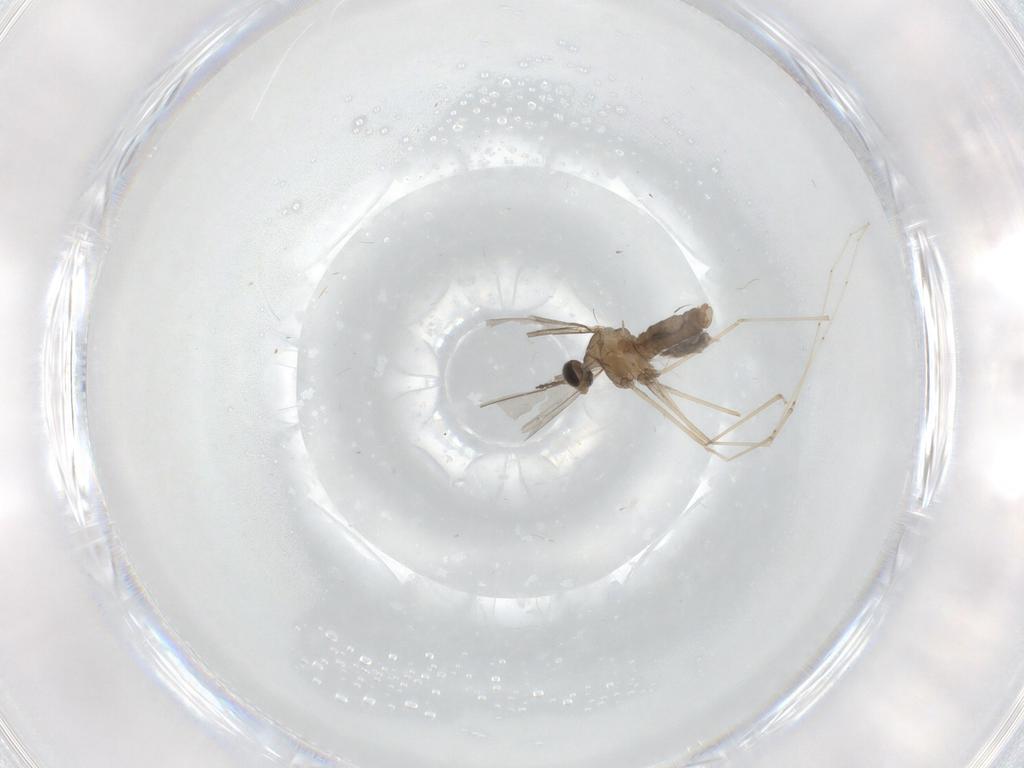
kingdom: Animalia
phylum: Arthropoda
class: Insecta
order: Diptera
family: Cecidomyiidae
